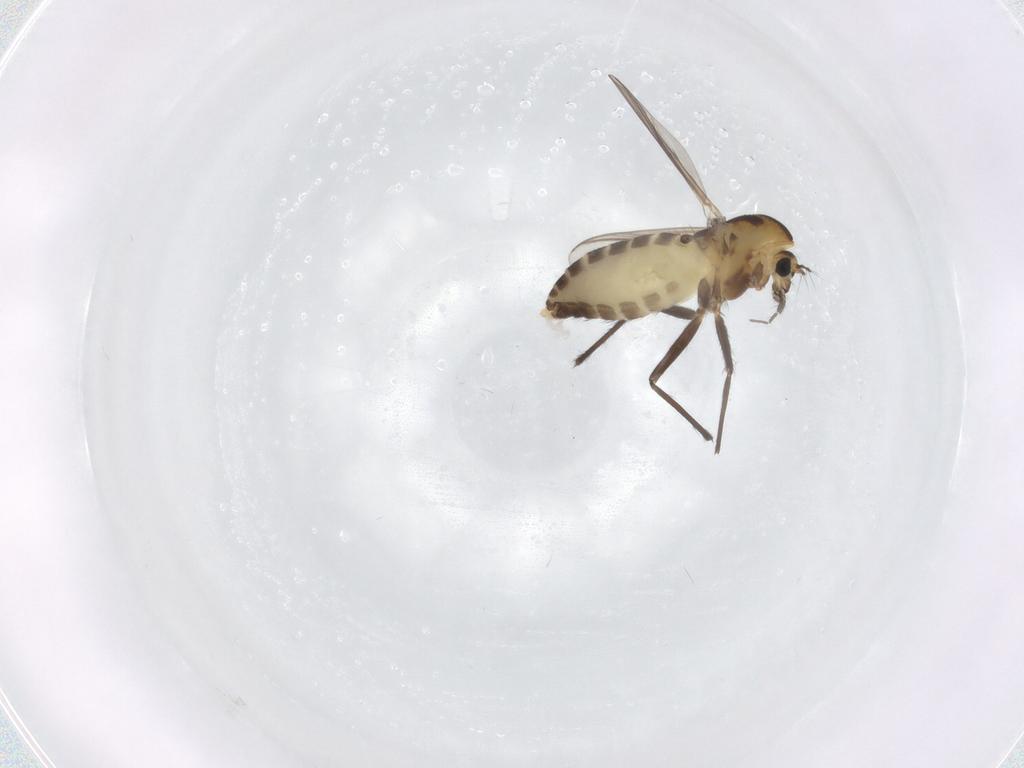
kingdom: Animalia
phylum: Arthropoda
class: Insecta
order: Diptera
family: Chironomidae
